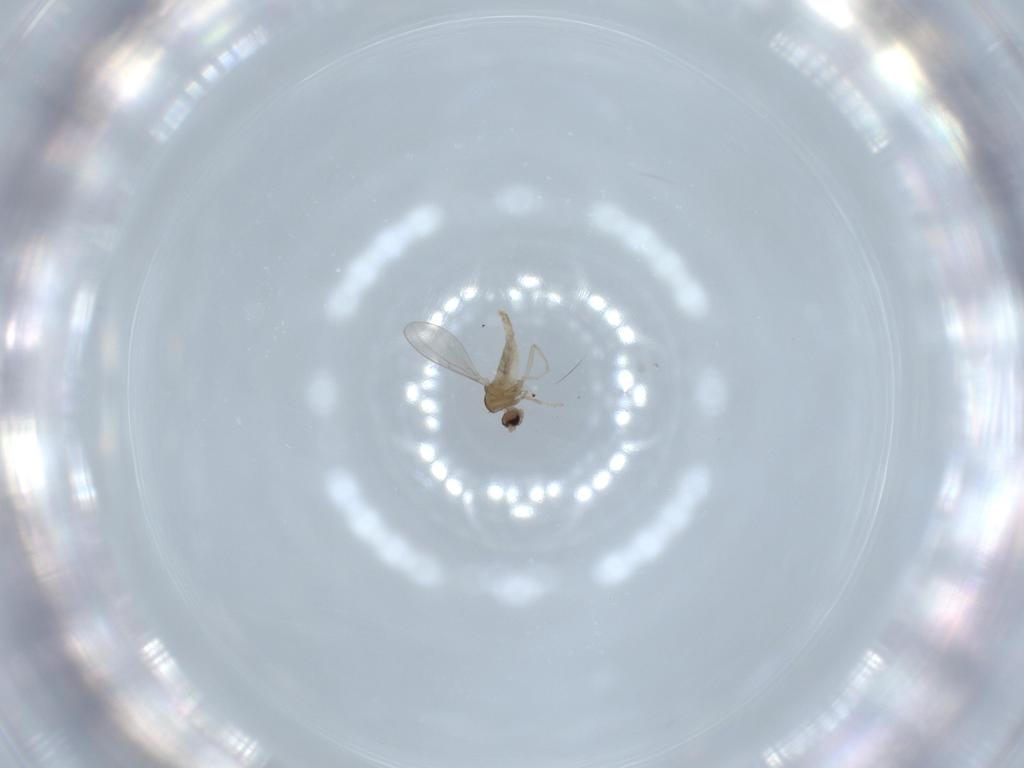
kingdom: Animalia
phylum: Arthropoda
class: Insecta
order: Diptera
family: Cecidomyiidae
